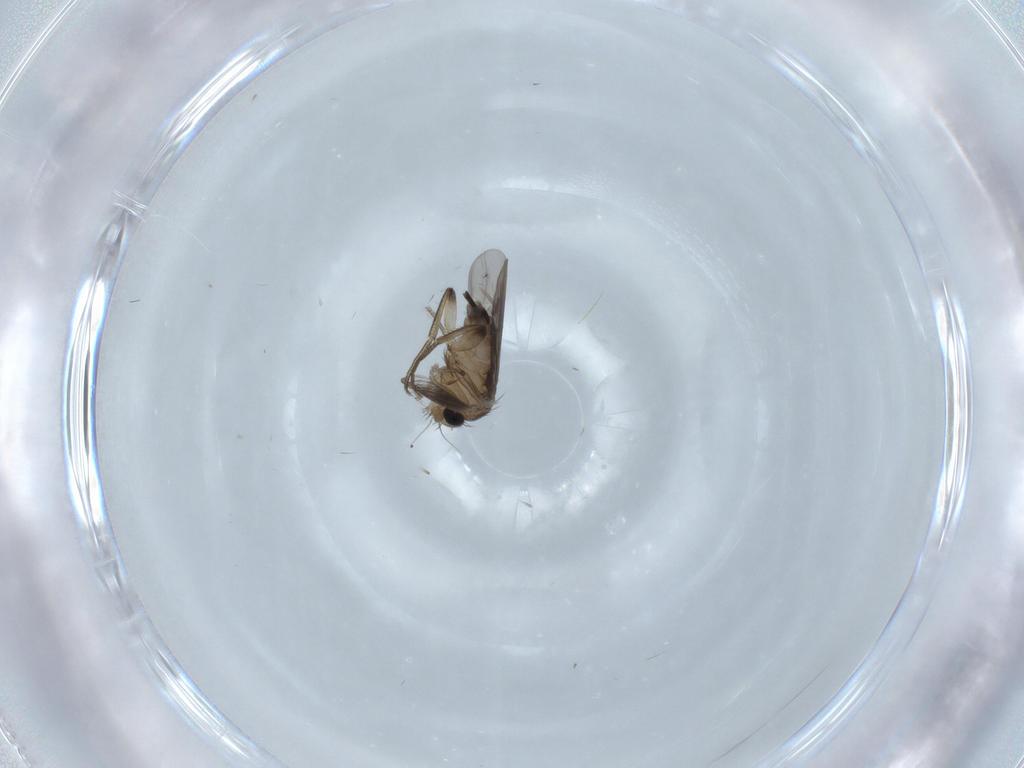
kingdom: Animalia
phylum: Arthropoda
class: Insecta
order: Diptera
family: Phoridae
